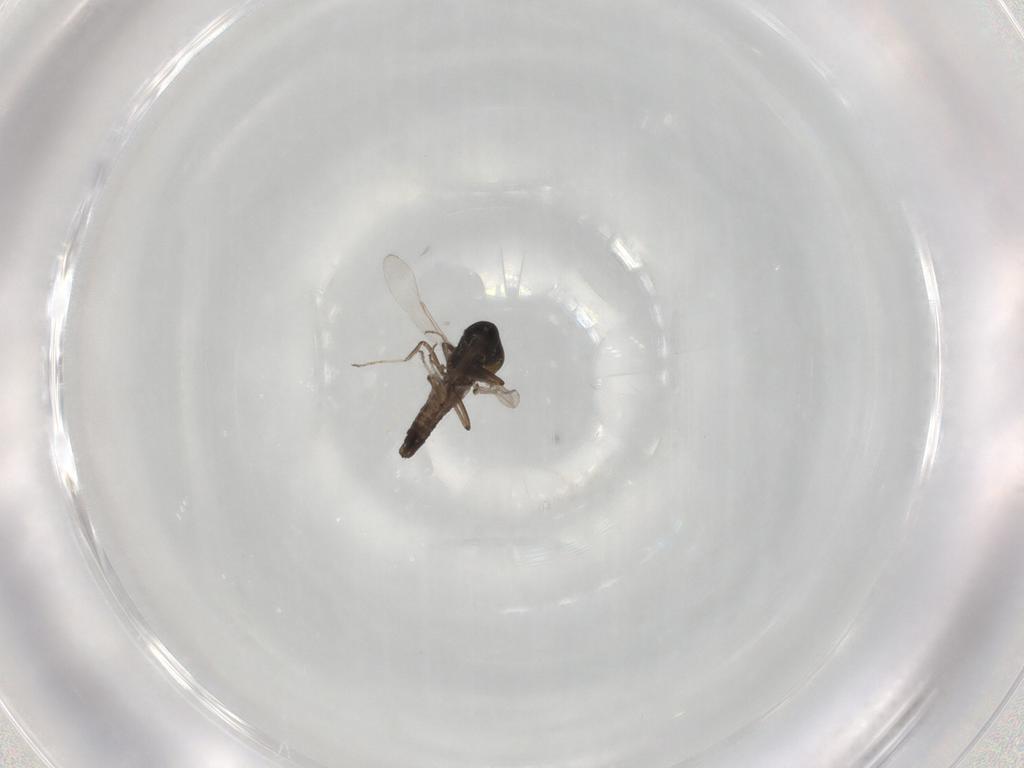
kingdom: Animalia
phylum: Arthropoda
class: Insecta
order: Diptera
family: Ceratopogonidae
